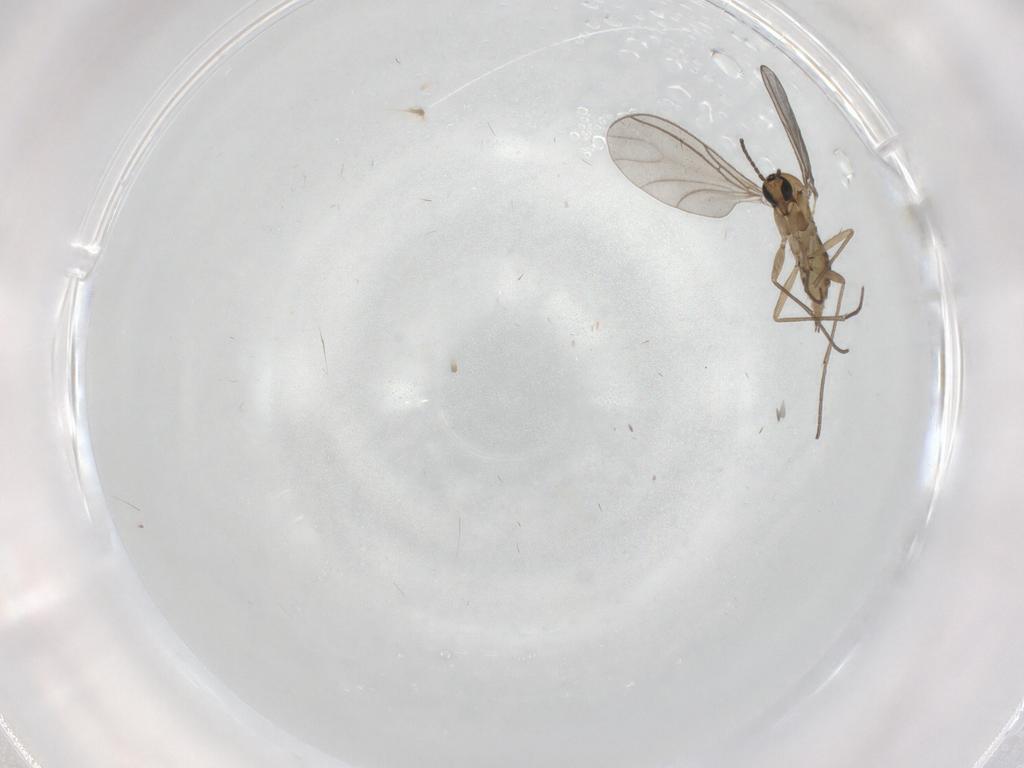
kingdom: Animalia
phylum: Arthropoda
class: Insecta
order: Diptera
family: Sciaridae
